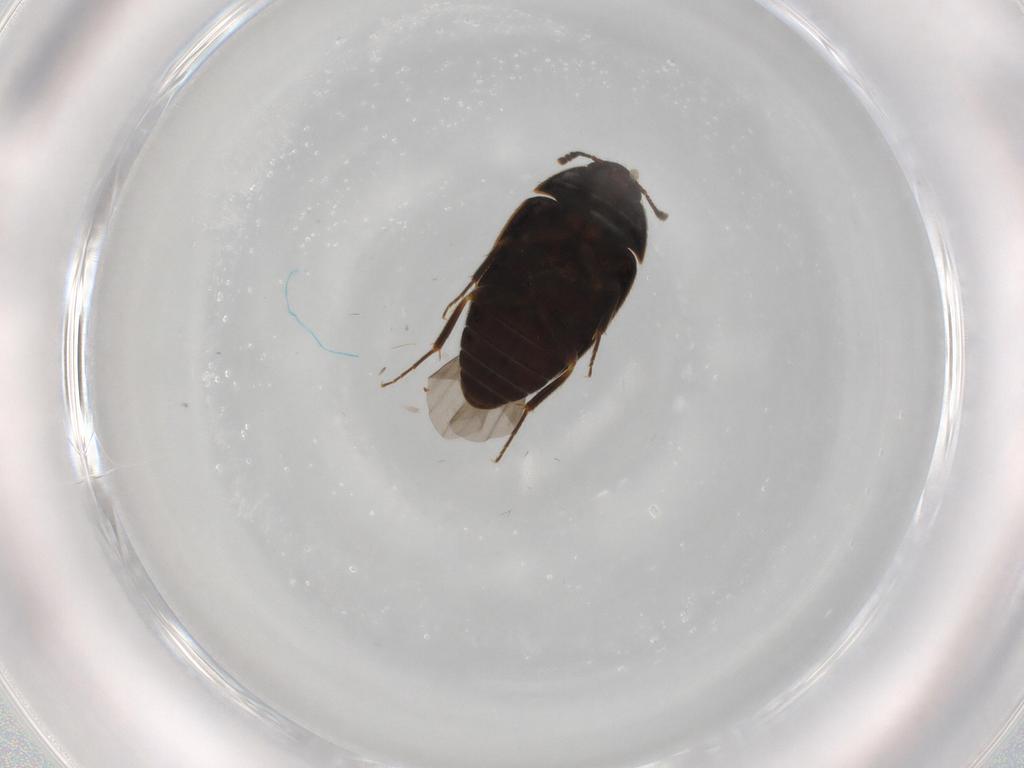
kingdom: Animalia
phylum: Arthropoda
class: Insecta
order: Coleoptera
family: Mycetophagidae
